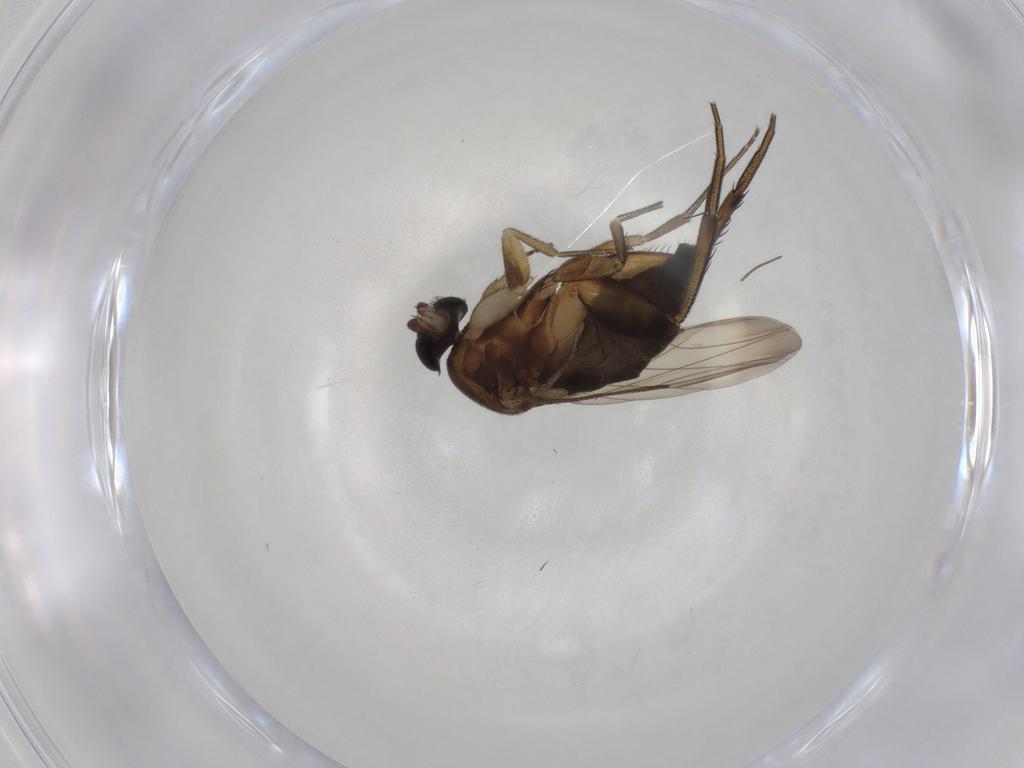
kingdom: Animalia
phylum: Arthropoda
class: Insecta
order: Diptera
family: Phoridae
